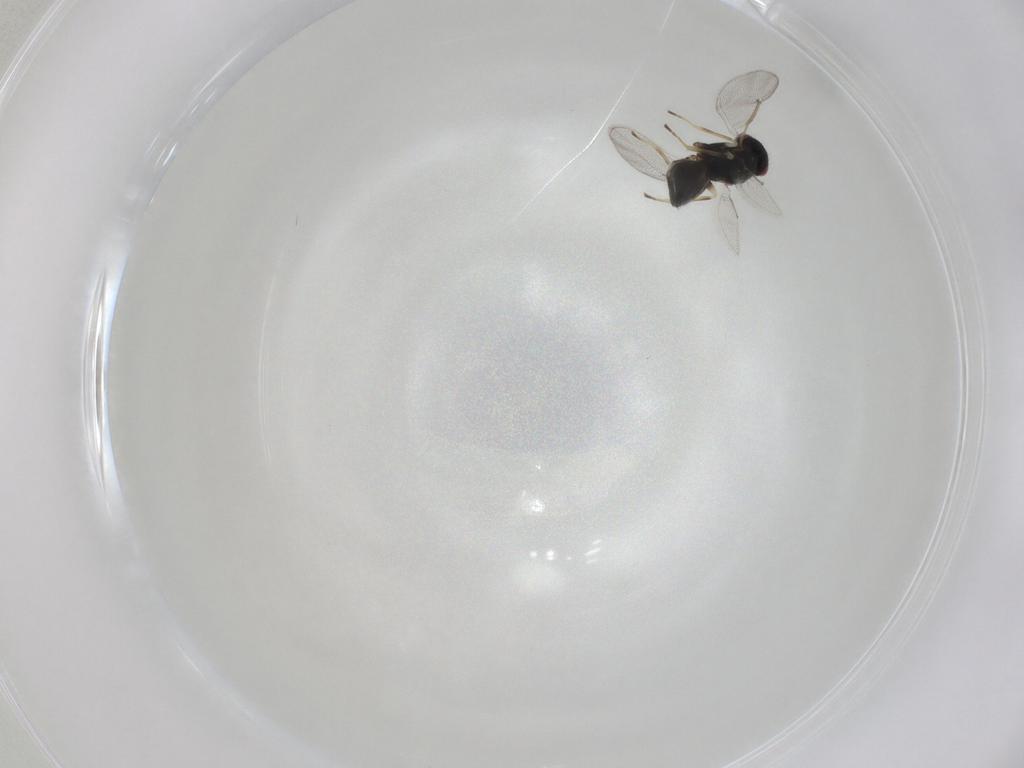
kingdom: Animalia
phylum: Arthropoda
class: Insecta
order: Hymenoptera
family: Eulophidae
